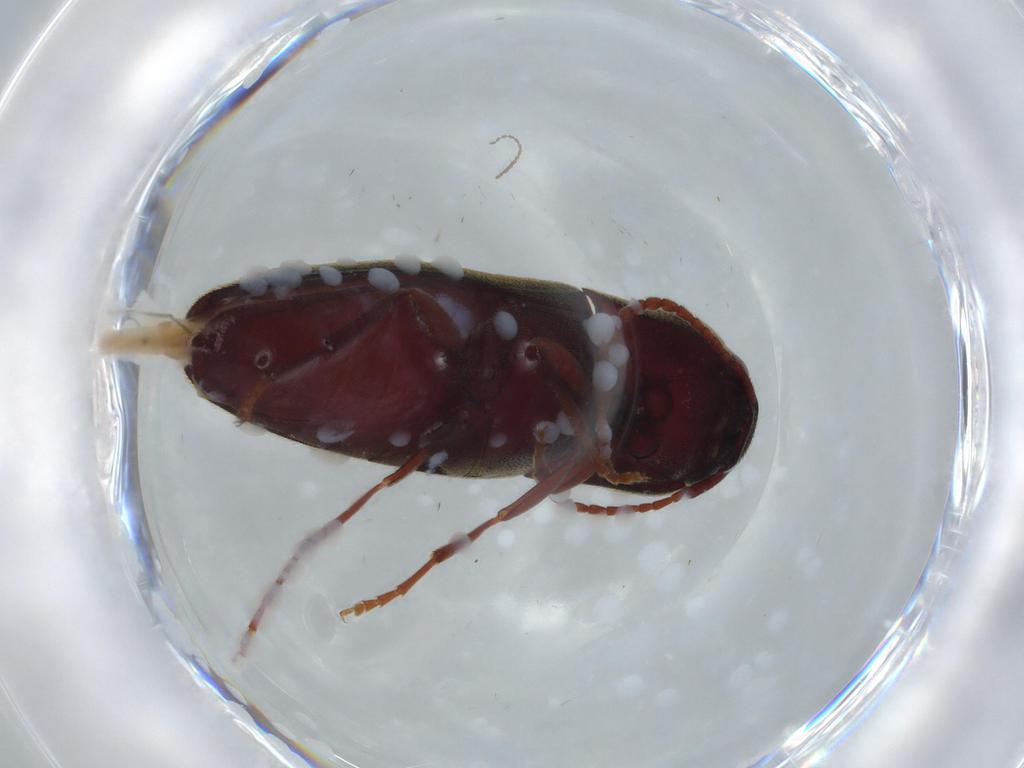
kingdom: Animalia
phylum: Arthropoda
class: Insecta
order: Coleoptera
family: Eucnemidae
